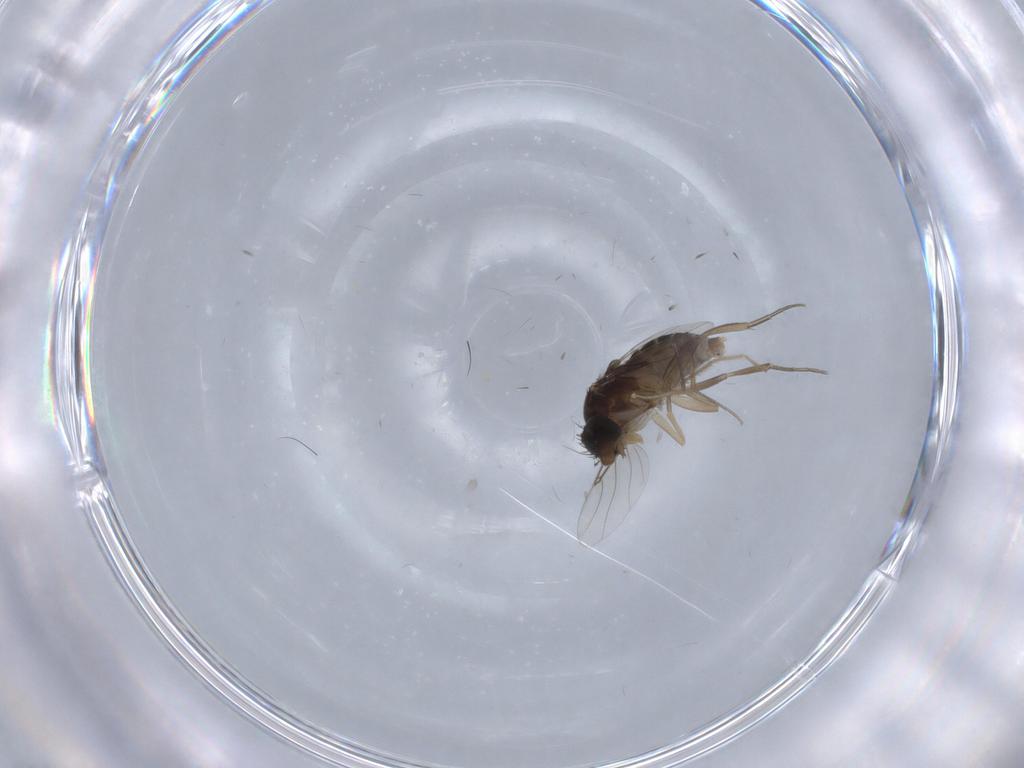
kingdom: Animalia
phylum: Arthropoda
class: Insecta
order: Diptera
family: Phoridae
